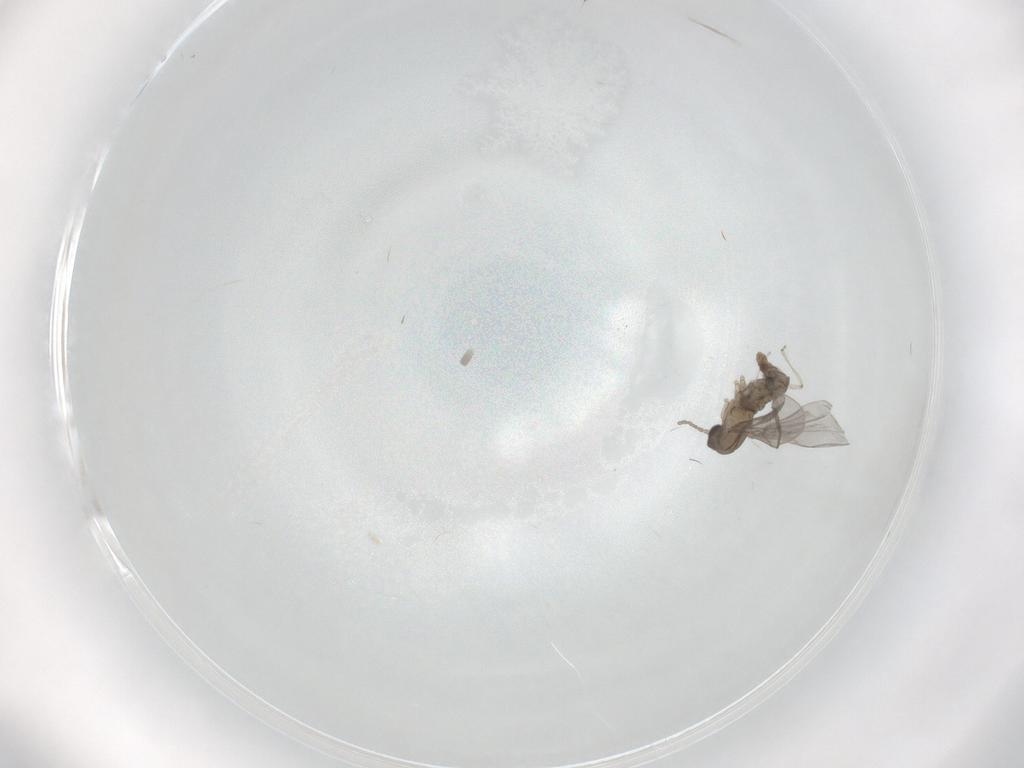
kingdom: Animalia
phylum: Arthropoda
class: Insecta
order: Diptera
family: Cecidomyiidae
